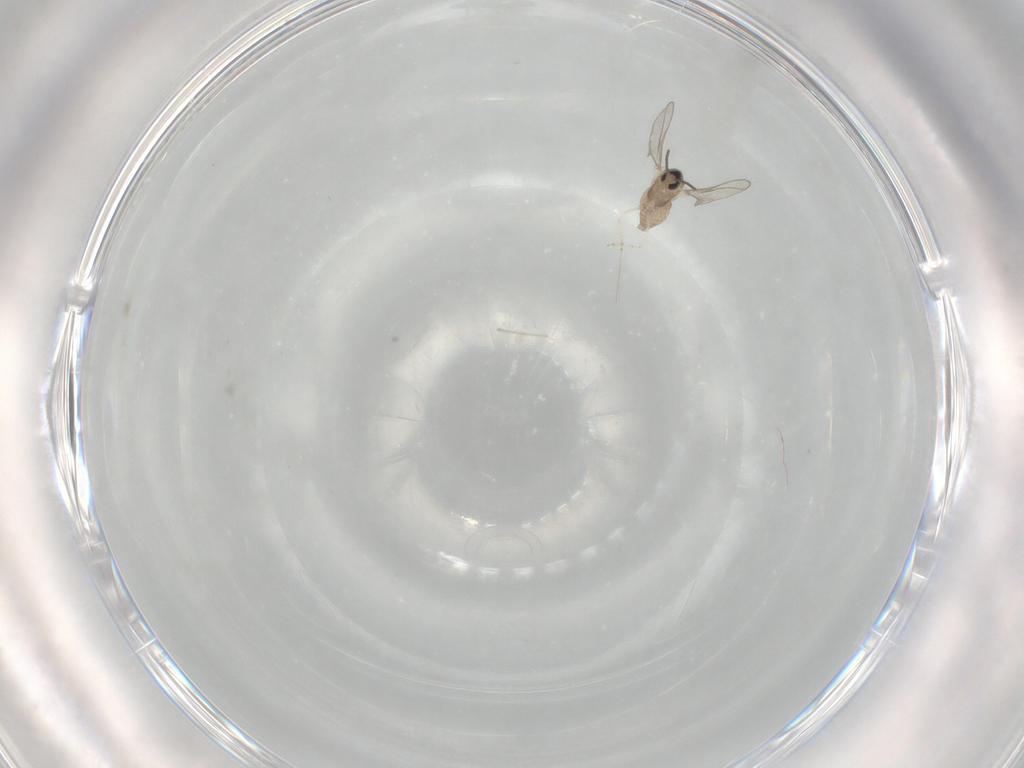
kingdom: Animalia
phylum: Arthropoda
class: Insecta
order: Diptera
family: Cecidomyiidae
